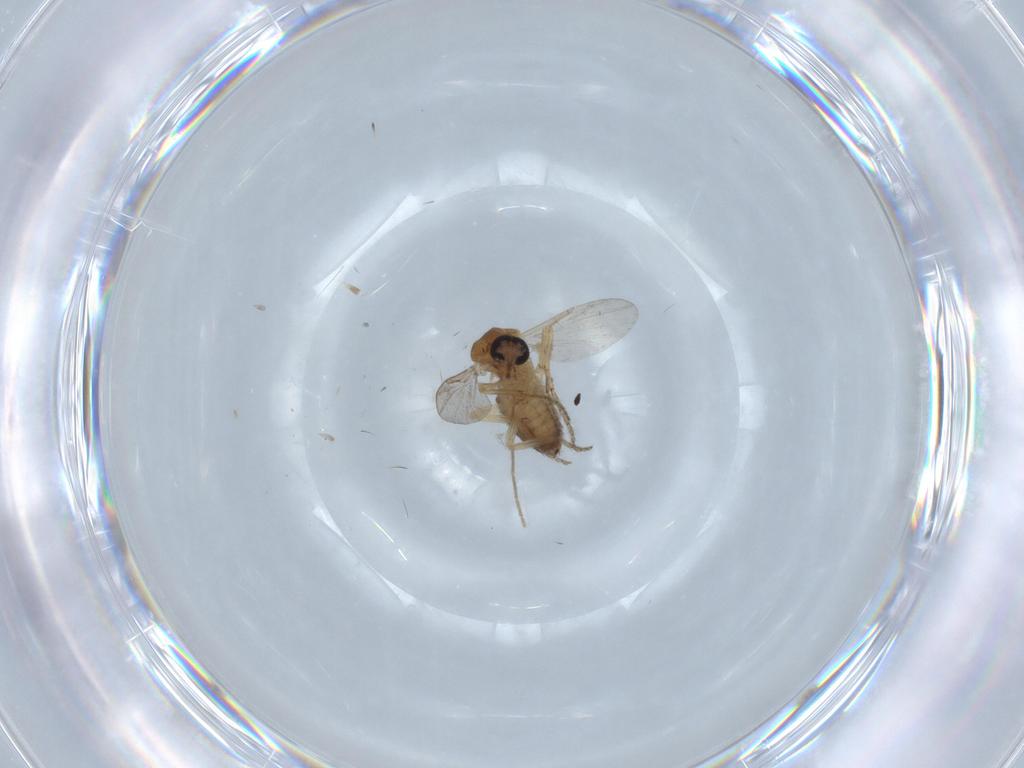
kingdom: Animalia
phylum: Arthropoda
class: Insecta
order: Diptera
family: Ceratopogonidae
